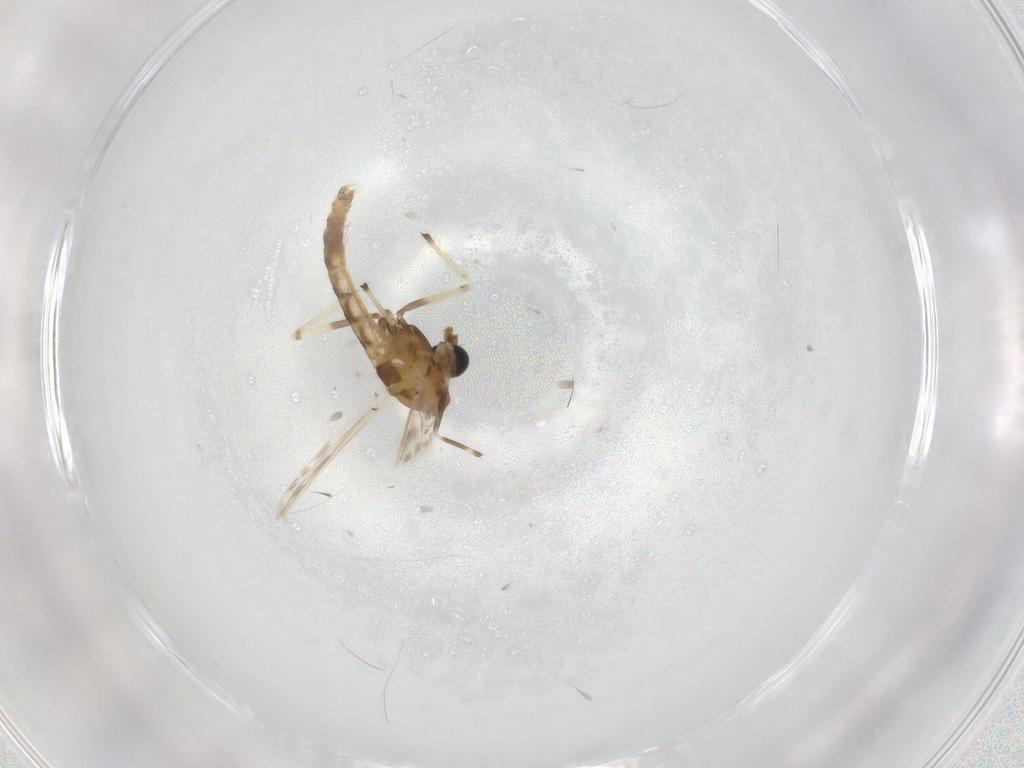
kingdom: Animalia
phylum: Arthropoda
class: Insecta
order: Diptera
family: Chironomidae
